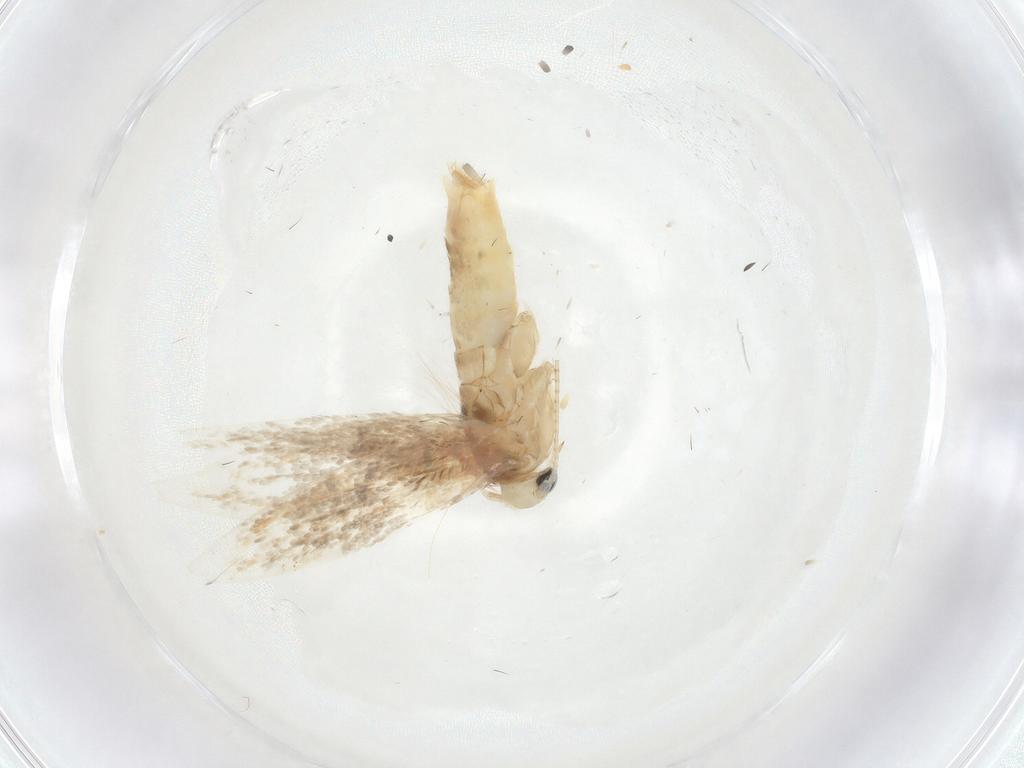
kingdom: Animalia
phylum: Arthropoda
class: Insecta
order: Lepidoptera
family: Gracillariidae
